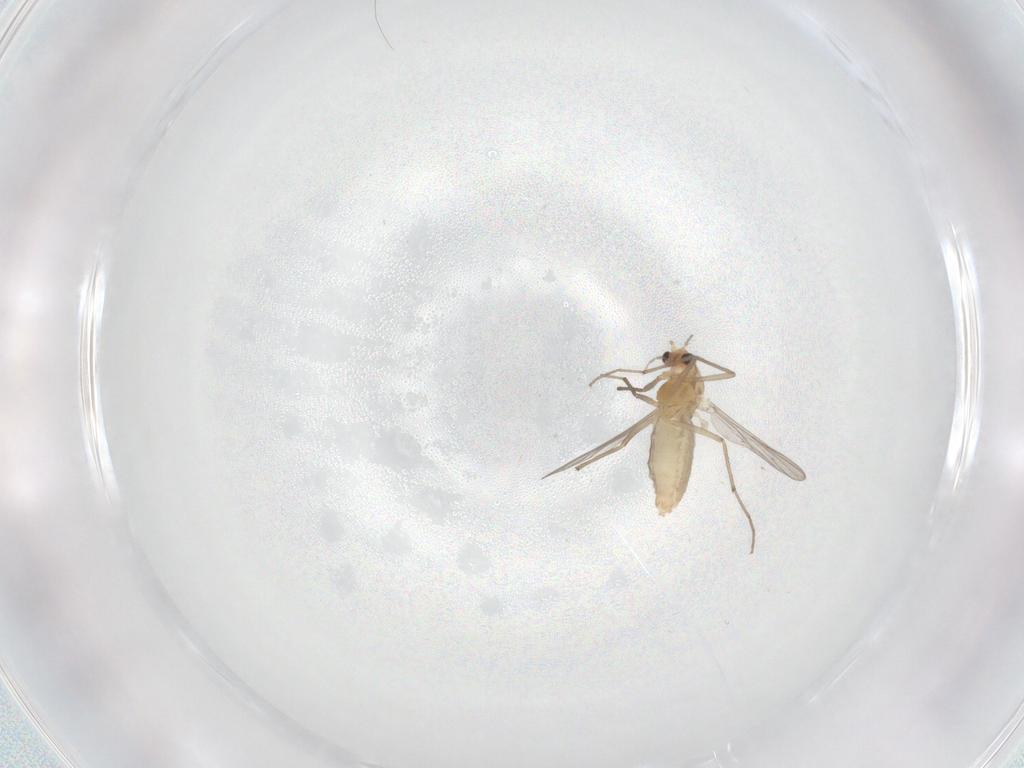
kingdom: Animalia
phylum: Arthropoda
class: Insecta
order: Diptera
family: Chironomidae
